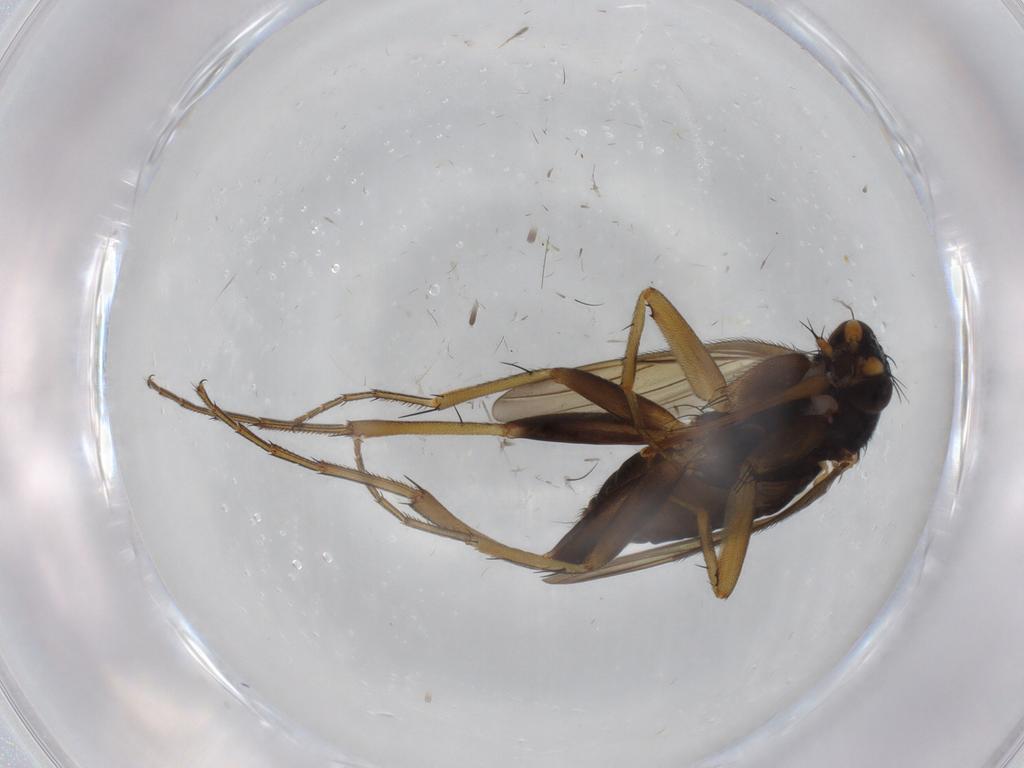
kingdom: Animalia
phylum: Arthropoda
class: Insecta
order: Diptera
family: Phoridae
